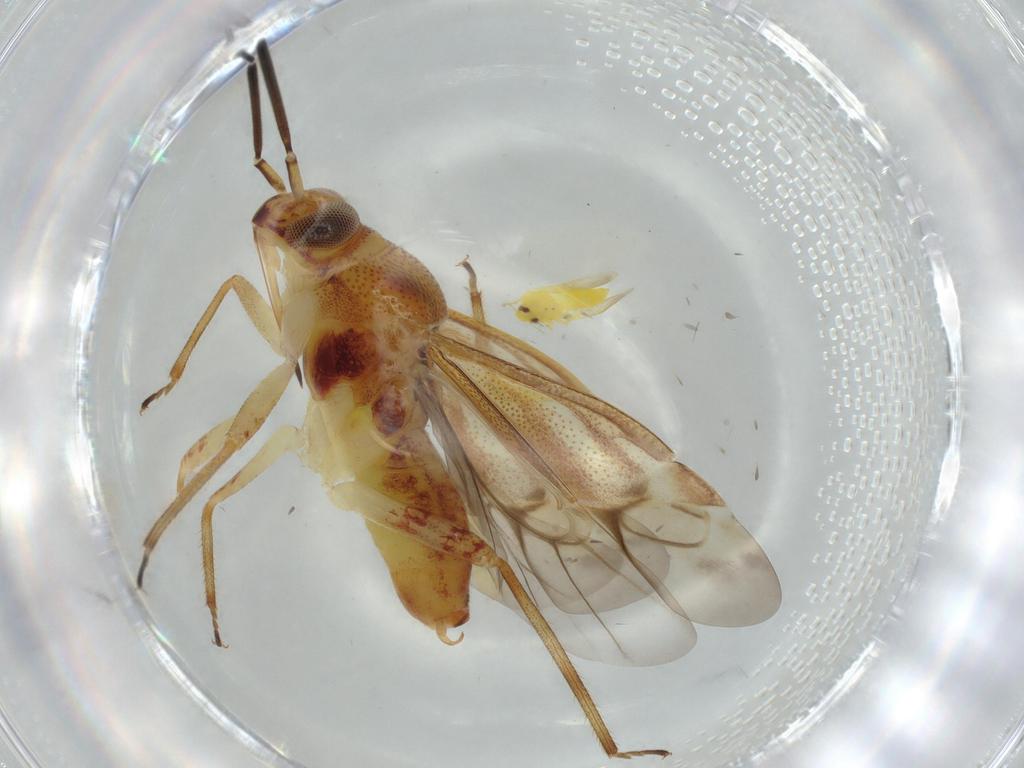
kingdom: Animalia
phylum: Arthropoda
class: Insecta
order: Hemiptera
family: Miridae
